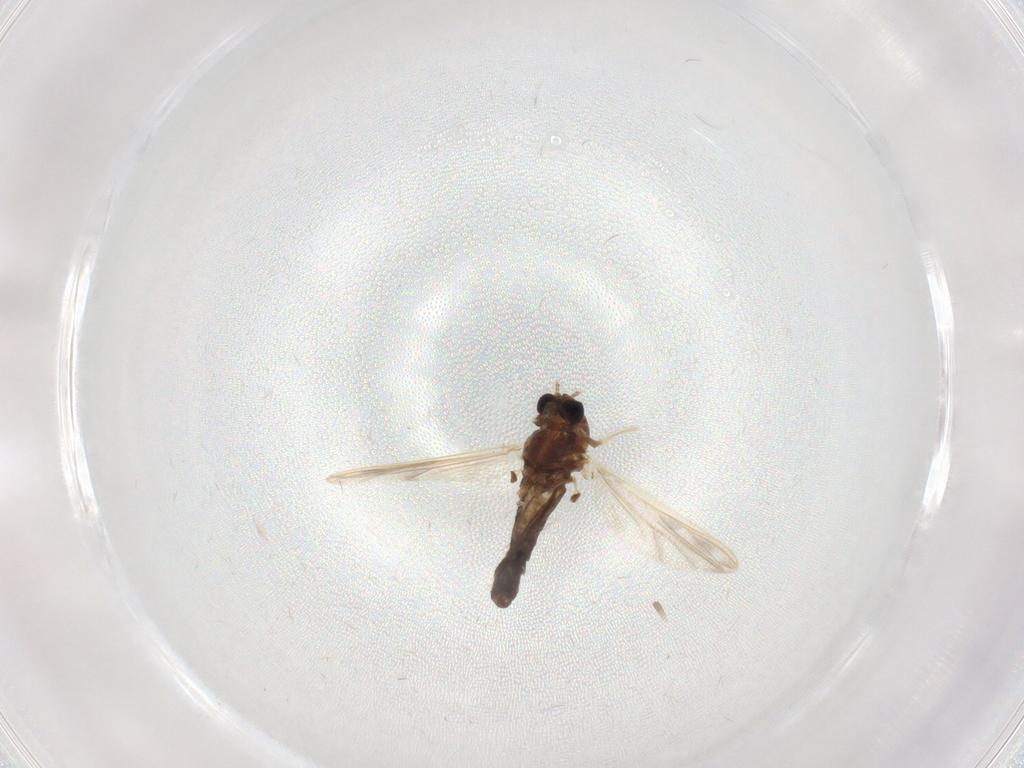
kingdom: Animalia
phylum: Arthropoda
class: Insecta
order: Diptera
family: Chironomidae
